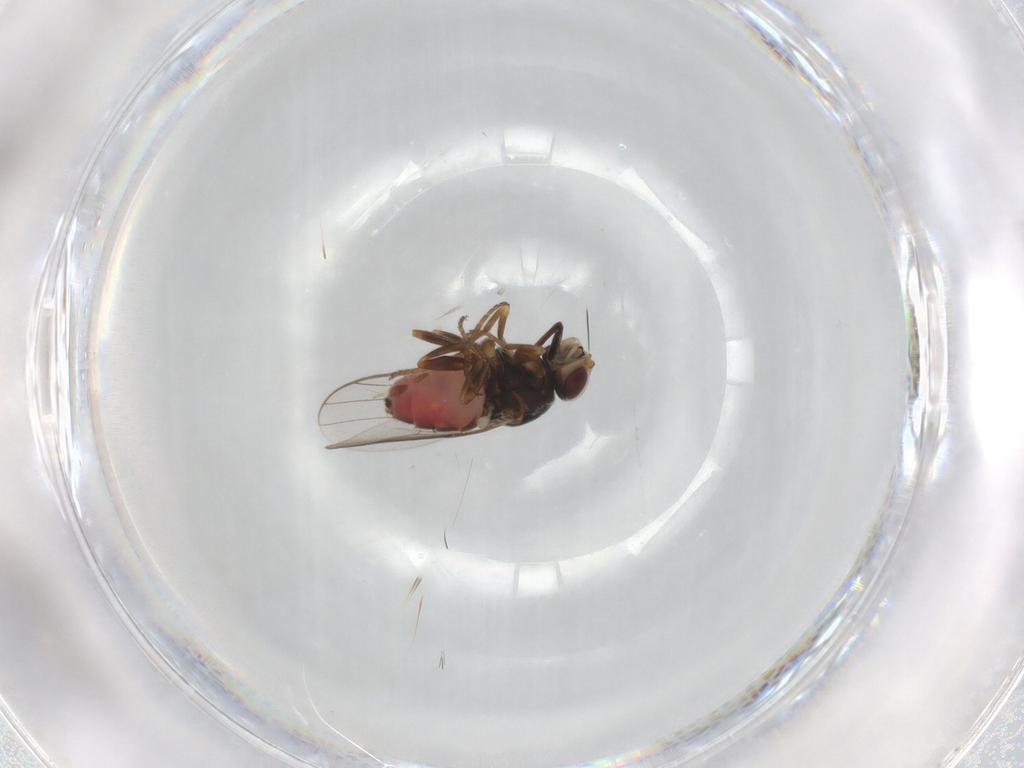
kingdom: Animalia
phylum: Arthropoda
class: Insecta
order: Diptera
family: Chloropidae
